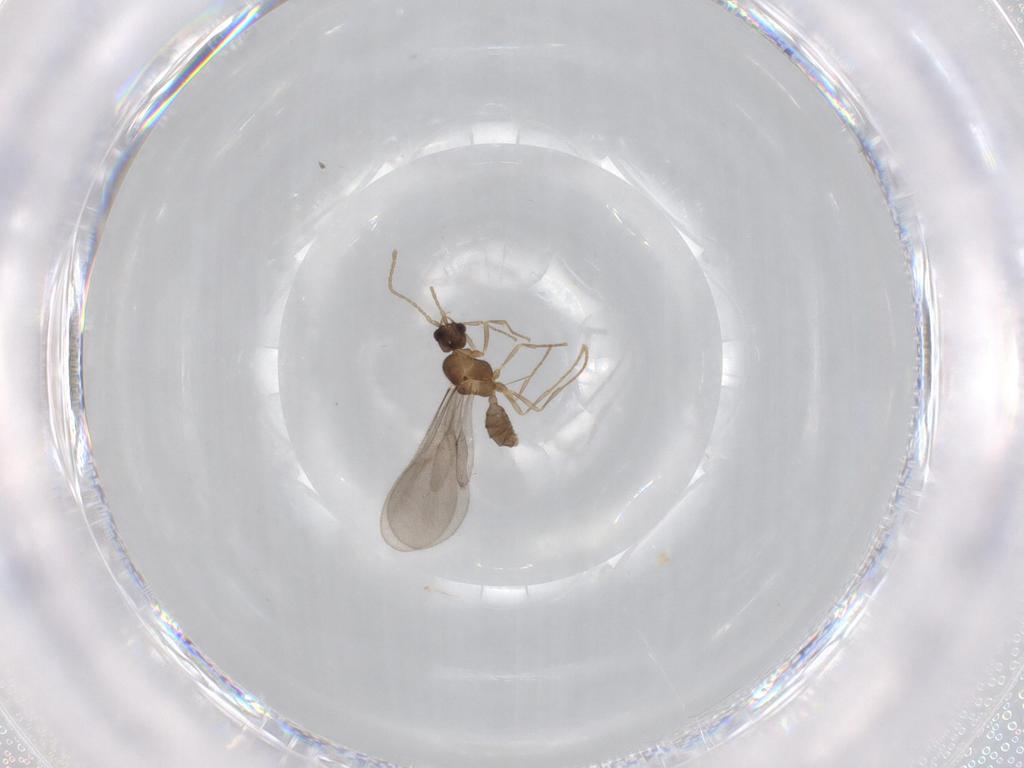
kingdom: Animalia
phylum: Arthropoda
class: Insecta
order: Hymenoptera
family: Formicidae
